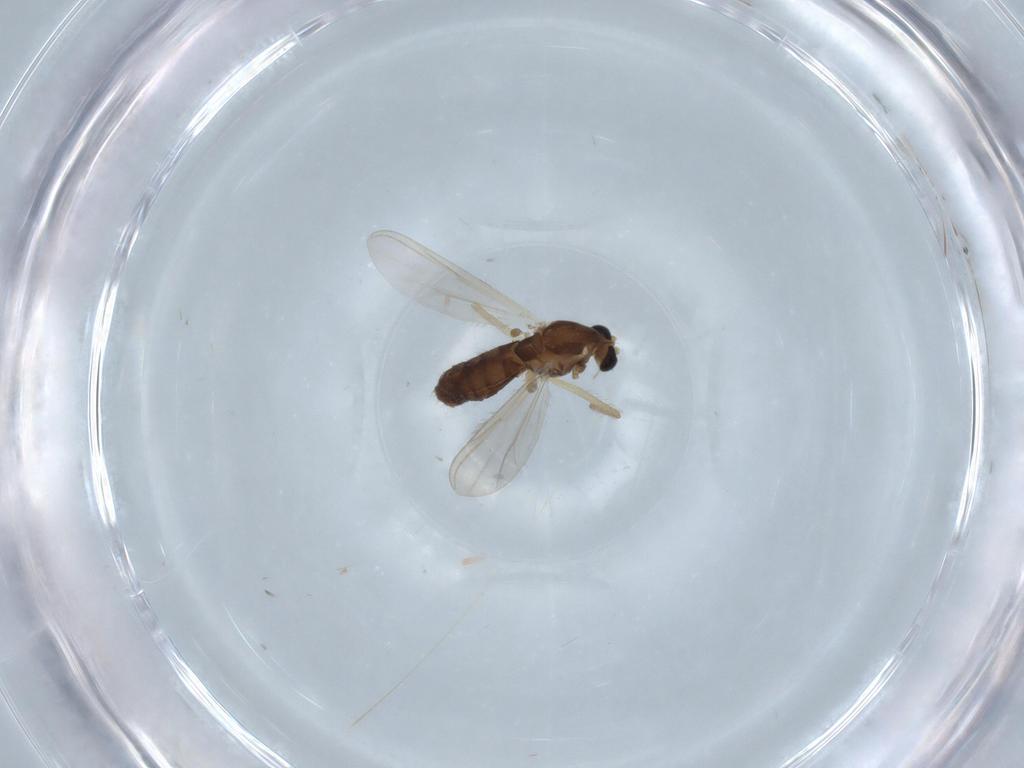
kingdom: Animalia
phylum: Arthropoda
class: Insecta
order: Diptera
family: Chironomidae
